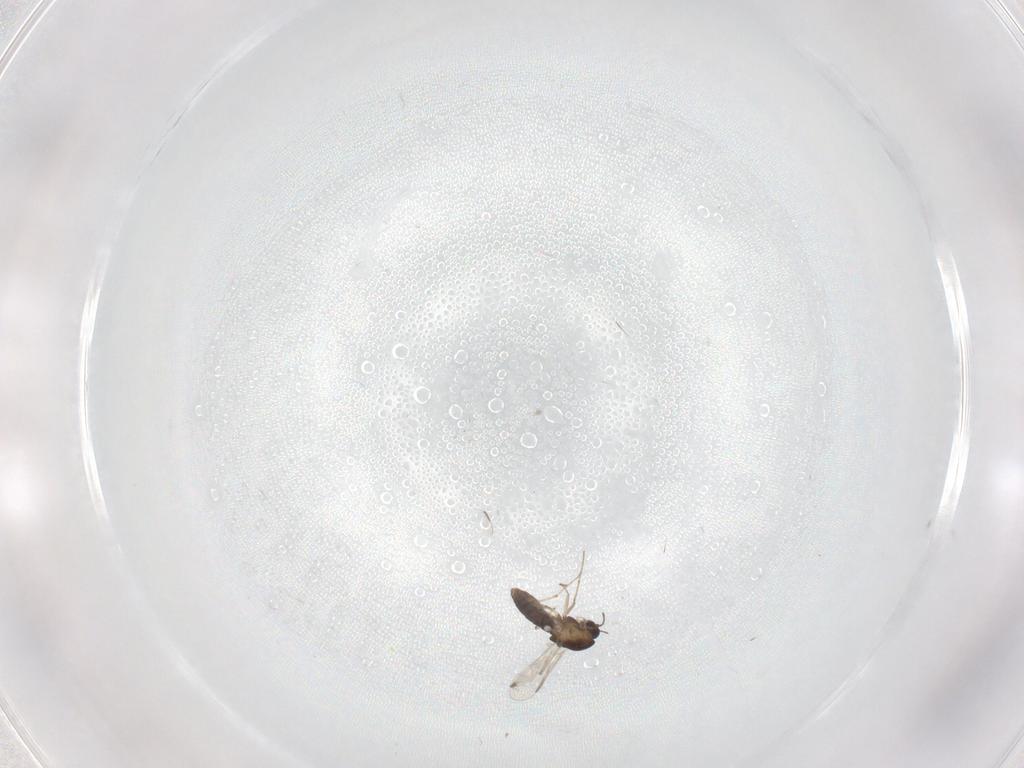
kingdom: Animalia
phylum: Arthropoda
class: Insecta
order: Diptera
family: Chironomidae
